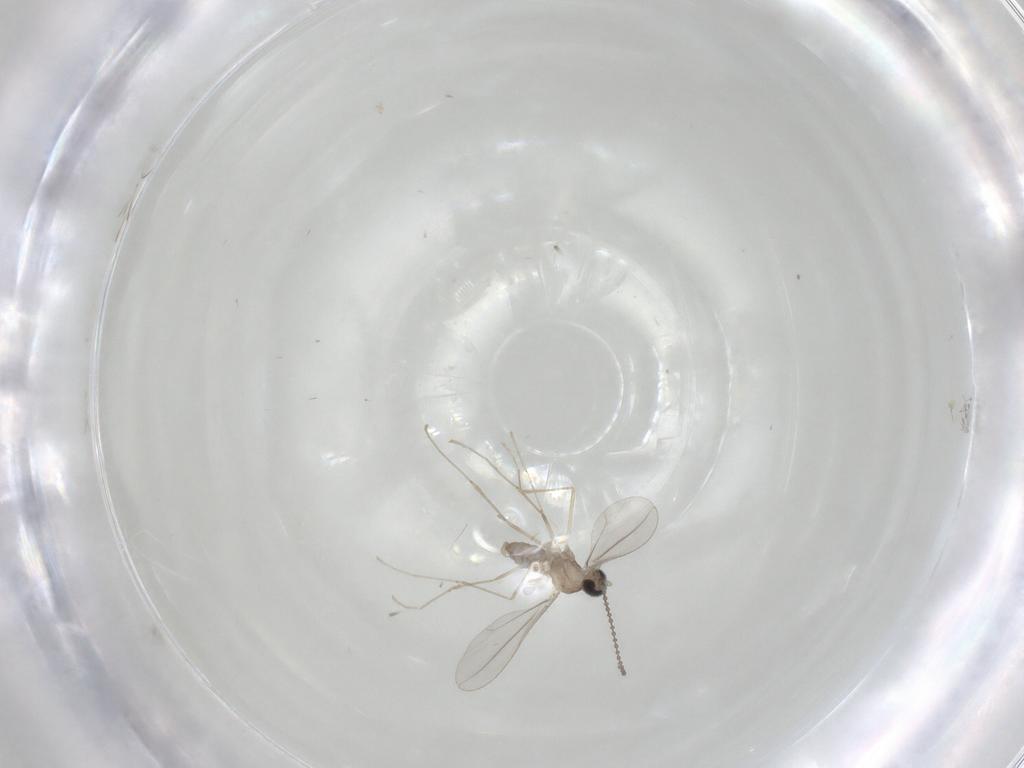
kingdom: Animalia
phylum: Arthropoda
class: Insecta
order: Diptera
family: Cecidomyiidae
